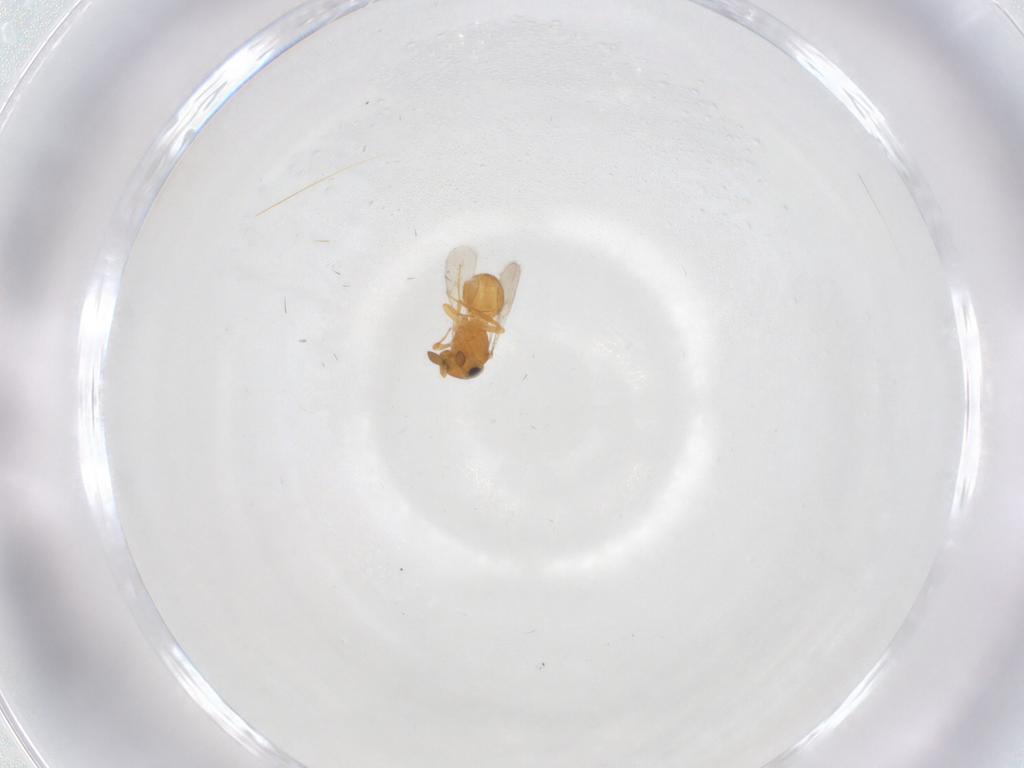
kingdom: Animalia
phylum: Arthropoda
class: Insecta
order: Hymenoptera
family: Scelionidae
